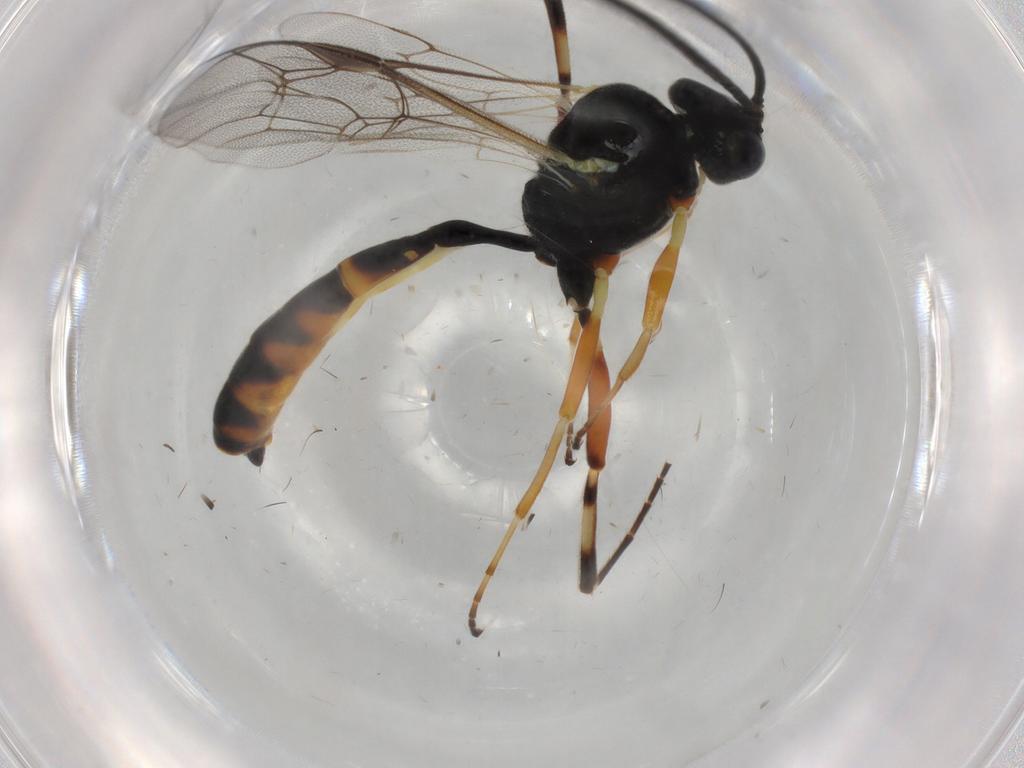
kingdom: Animalia
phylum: Arthropoda
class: Insecta
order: Hymenoptera
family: Ichneumonidae
